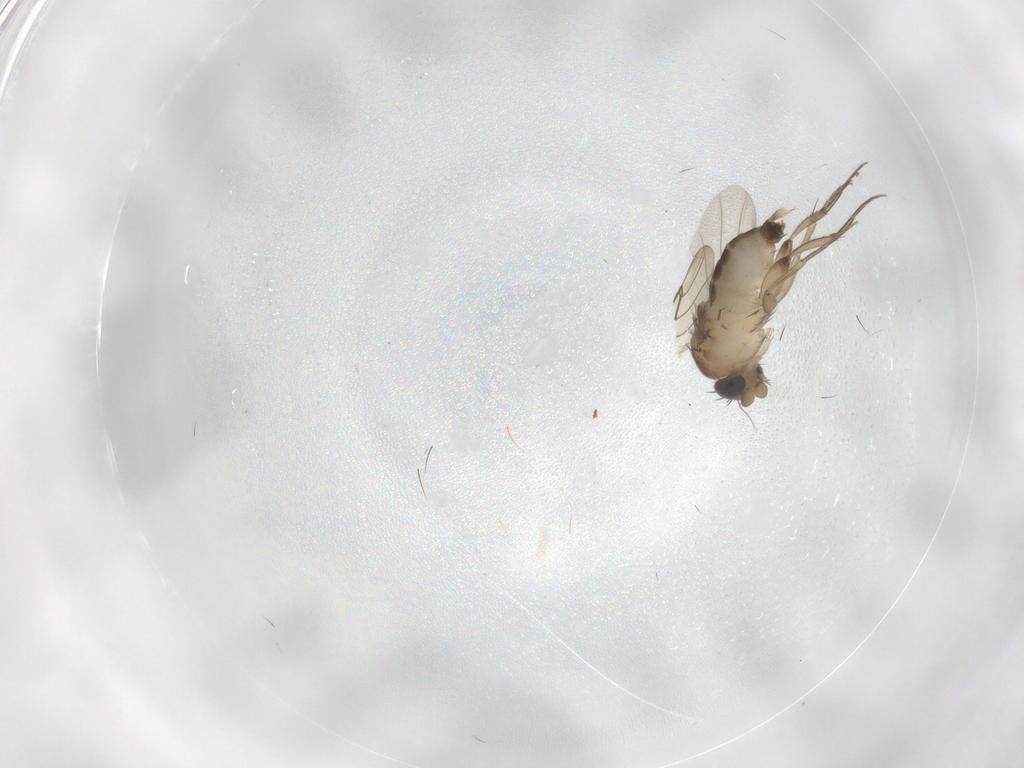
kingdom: Animalia
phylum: Arthropoda
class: Insecta
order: Diptera
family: Phoridae
